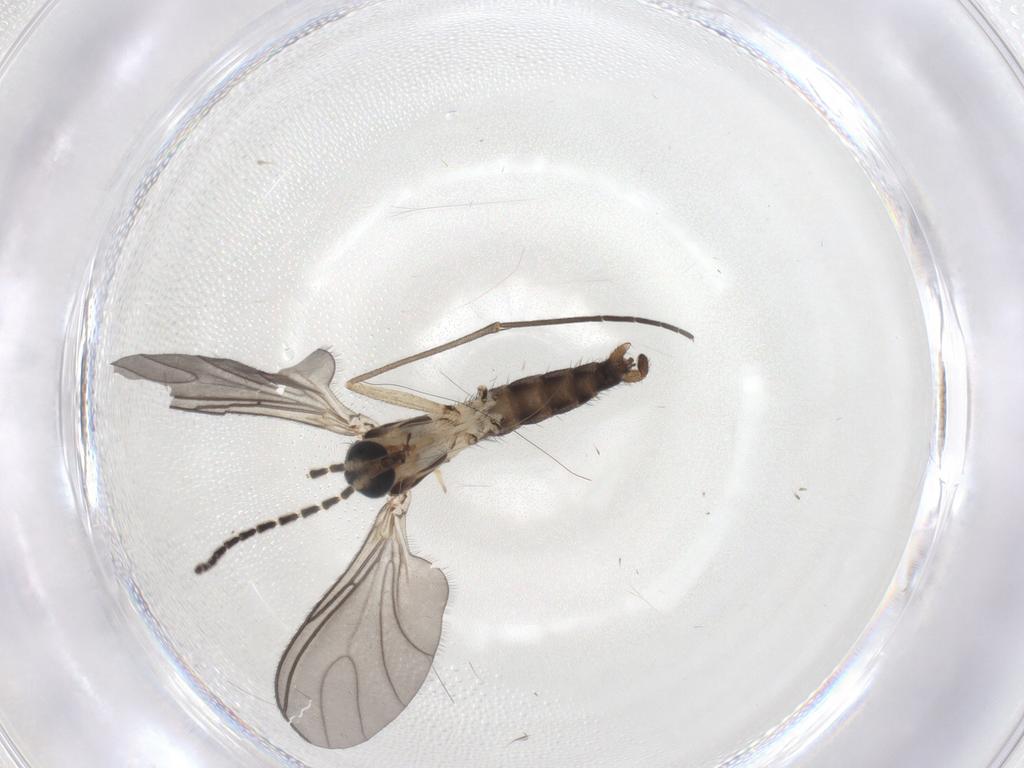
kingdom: Animalia
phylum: Arthropoda
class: Insecta
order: Diptera
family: Sciaridae
